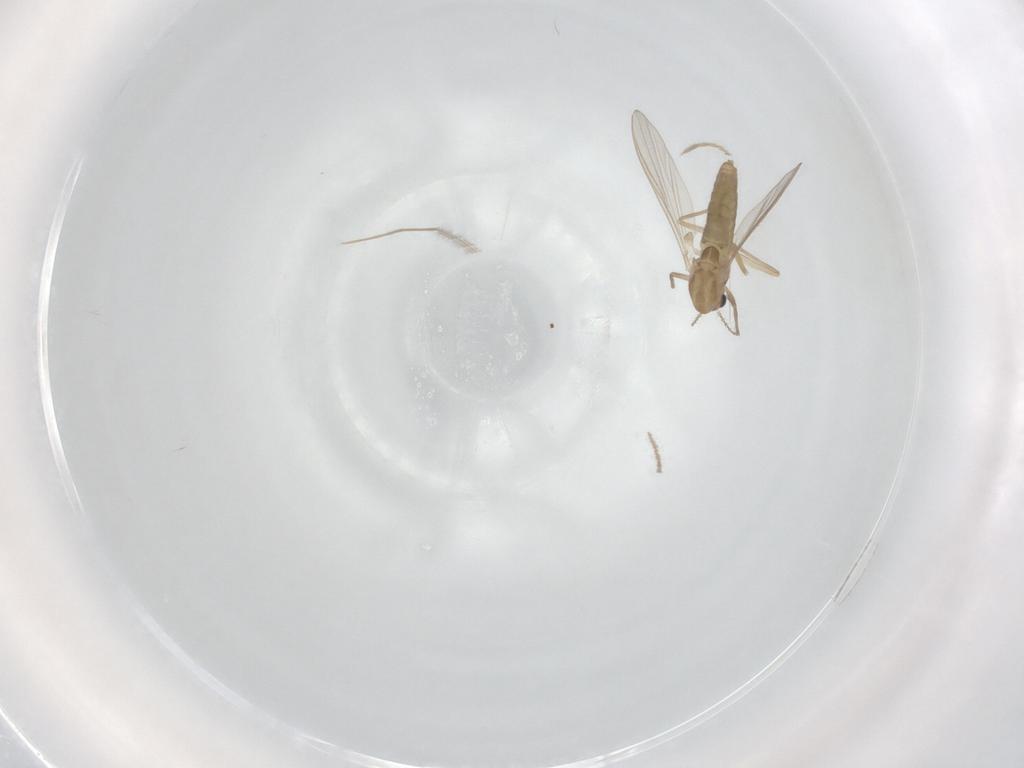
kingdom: Animalia
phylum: Arthropoda
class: Insecta
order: Diptera
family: Chironomidae
